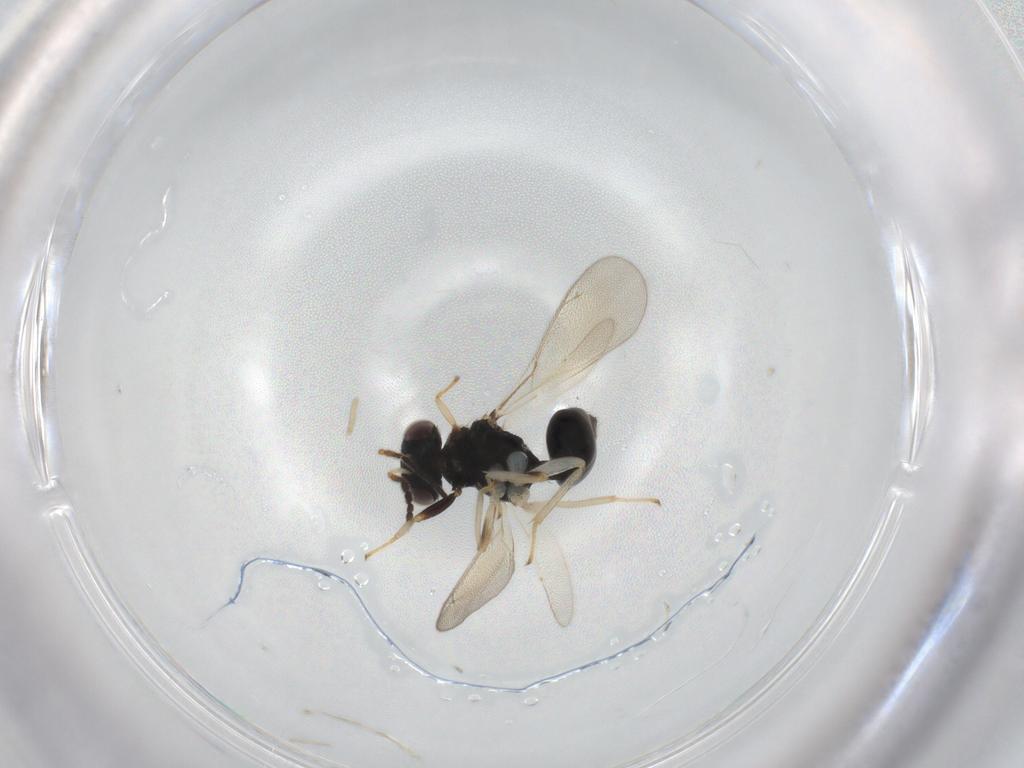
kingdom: Animalia
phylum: Arthropoda
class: Insecta
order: Hymenoptera
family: Eulophidae
